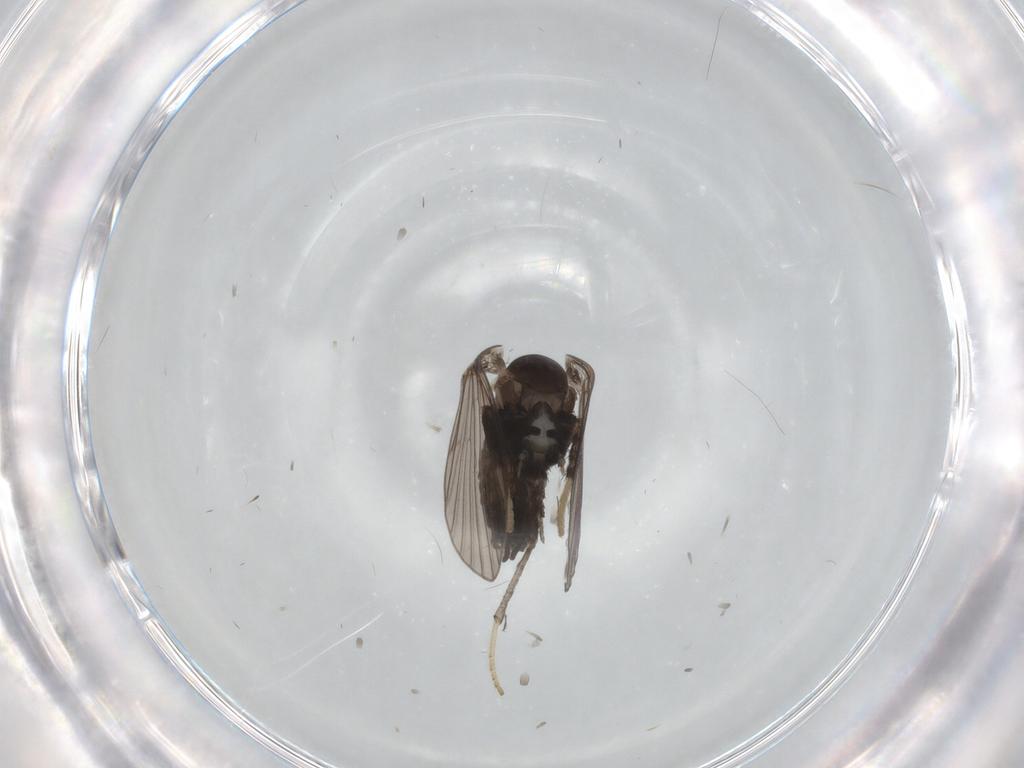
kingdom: Animalia
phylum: Arthropoda
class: Insecta
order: Diptera
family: Psychodidae
